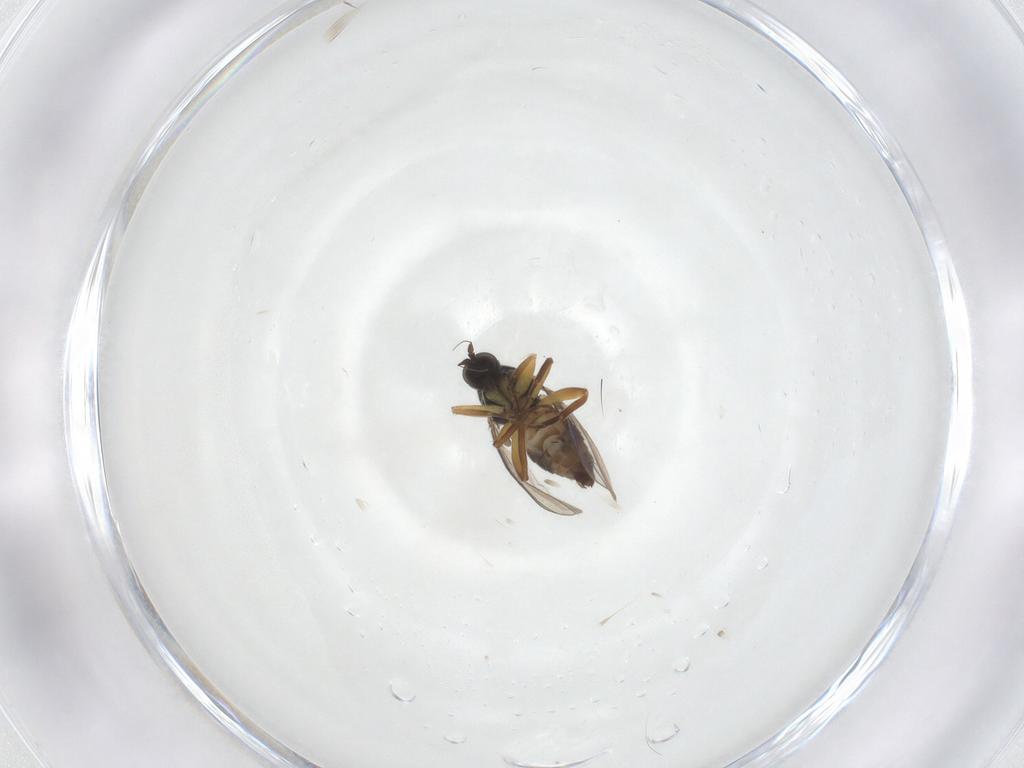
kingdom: Animalia
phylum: Arthropoda
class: Insecta
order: Diptera
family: Hybotidae
